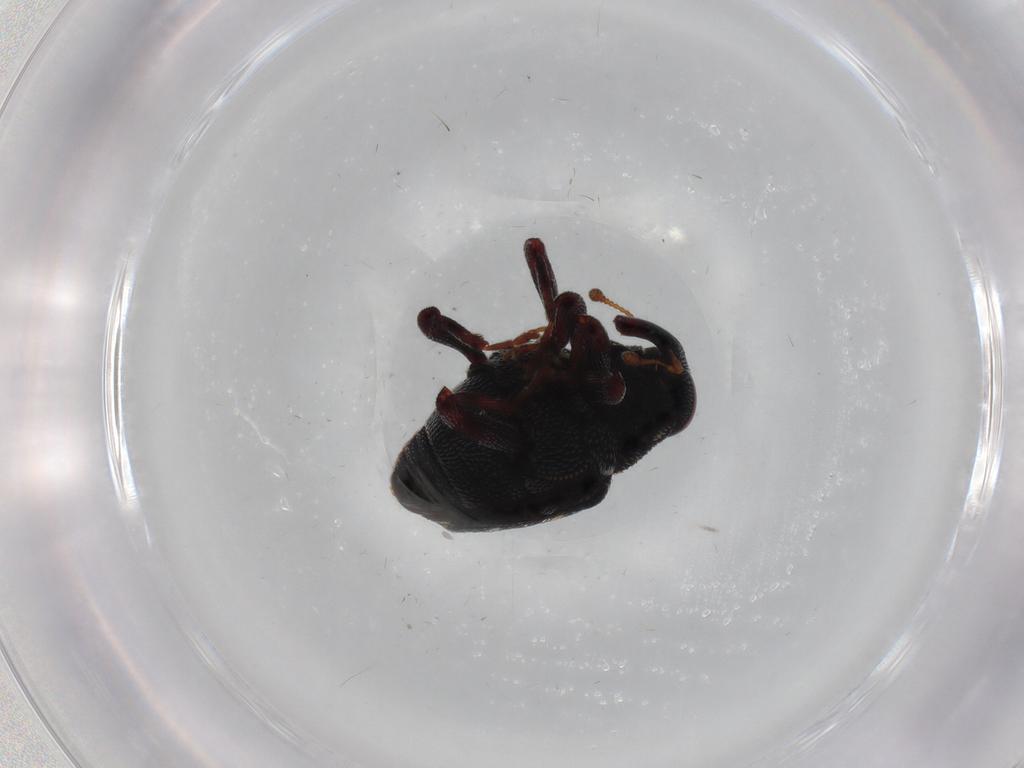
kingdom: Animalia
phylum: Arthropoda
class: Insecta
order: Coleoptera
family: Curculionidae
